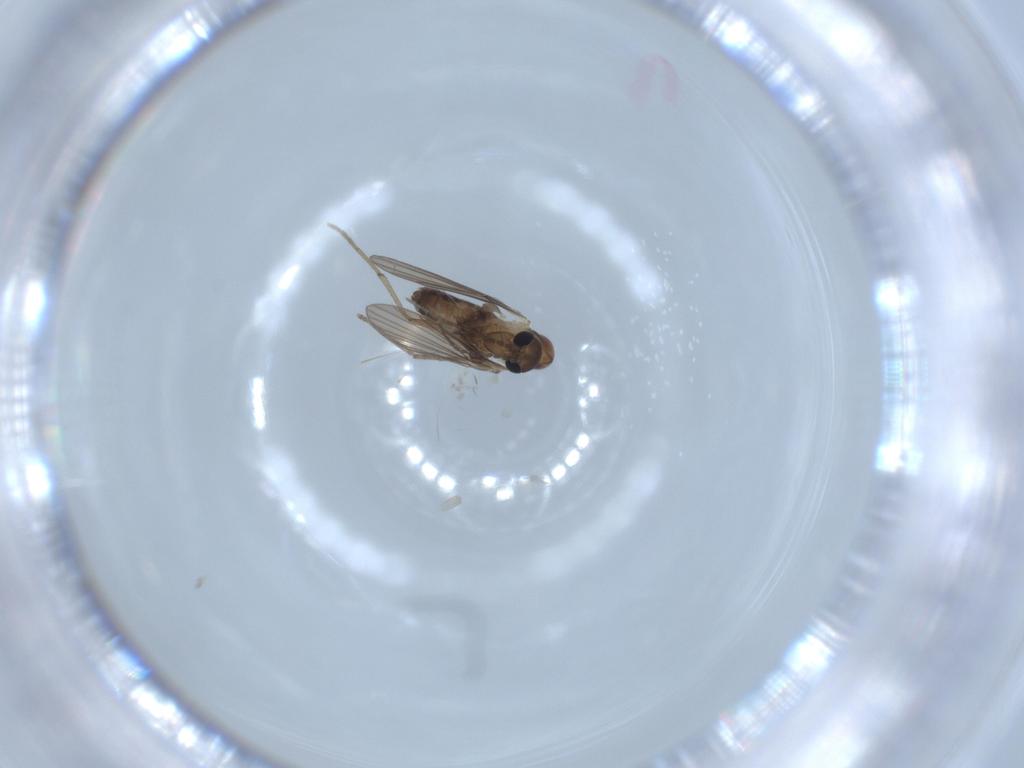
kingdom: Animalia
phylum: Arthropoda
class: Insecta
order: Diptera
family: Psychodidae
